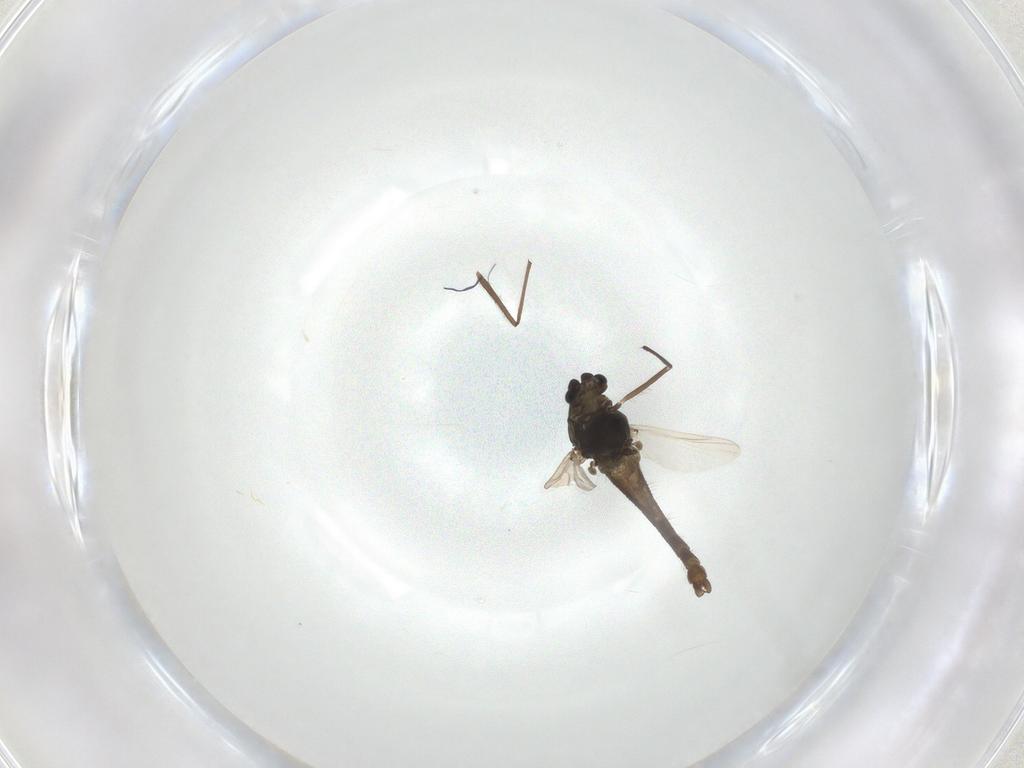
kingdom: Animalia
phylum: Arthropoda
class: Insecta
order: Diptera
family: Chironomidae
